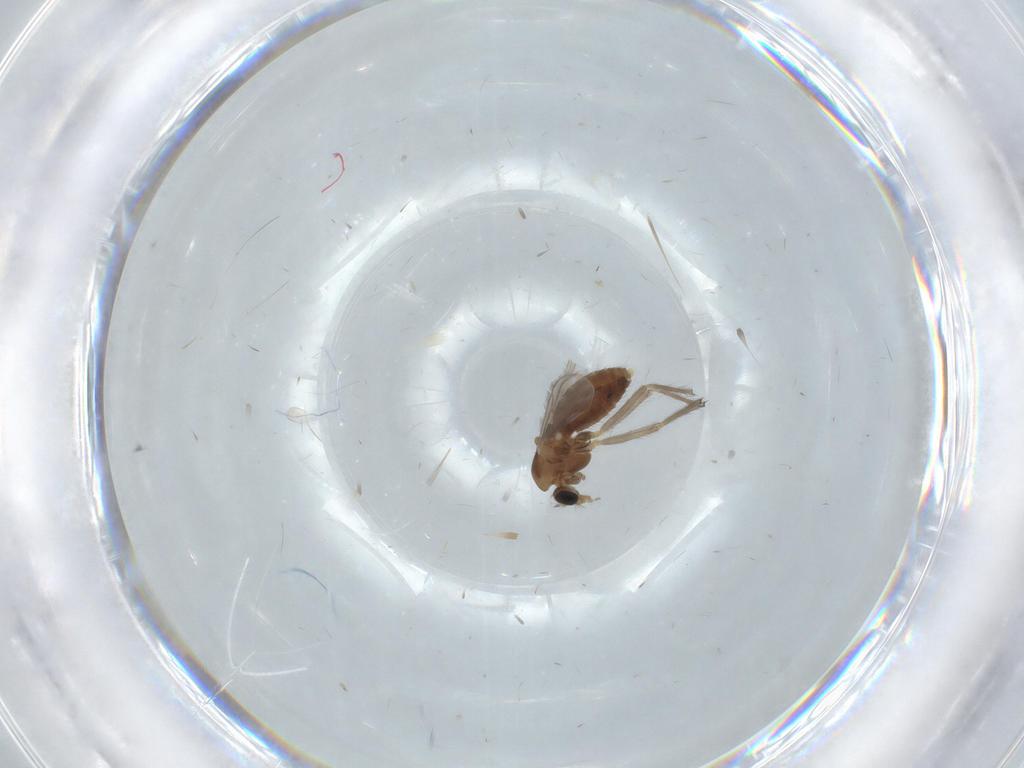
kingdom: Animalia
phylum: Arthropoda
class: Insecta
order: Diptera
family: Chironomidae
